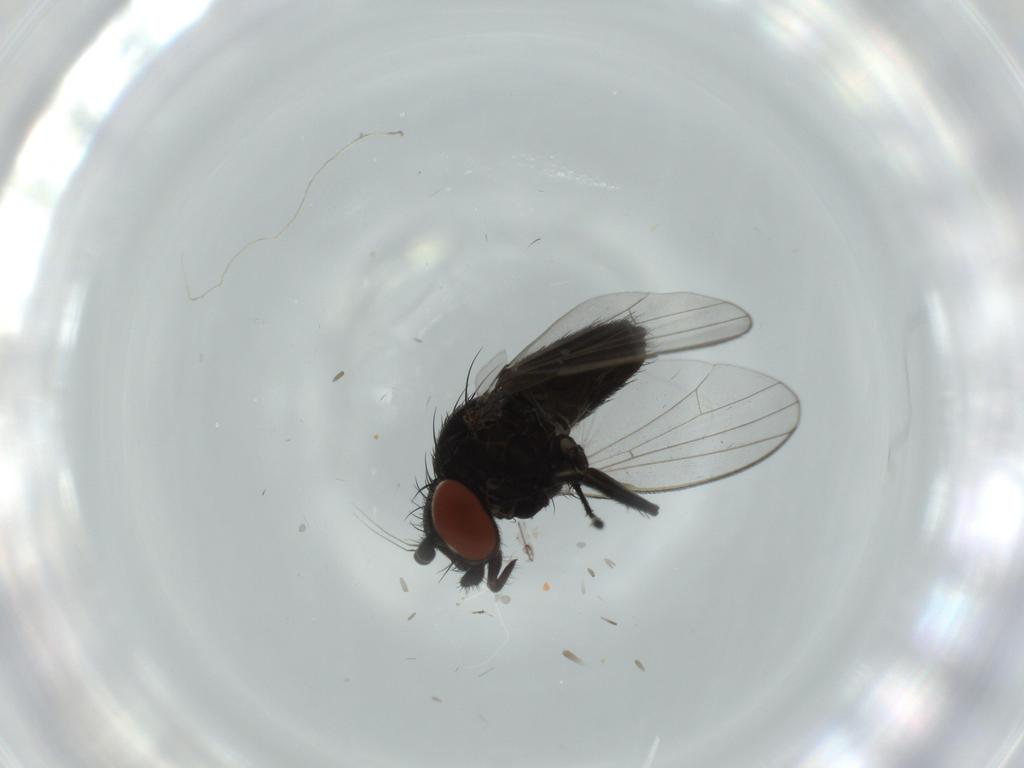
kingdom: Animalia
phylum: Arthropoda
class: Insecta
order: Diptera
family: Milichiidae
